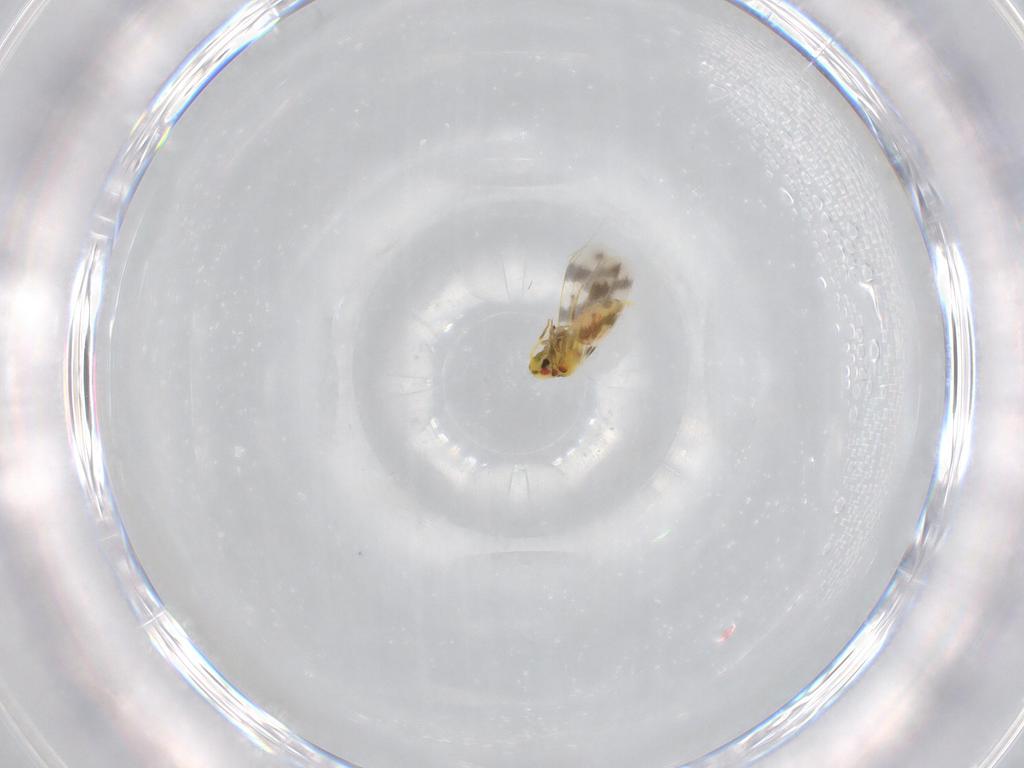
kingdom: Animalia
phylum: Arthropoda
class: Insecta
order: Hemiptera
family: Aleyrodidae
